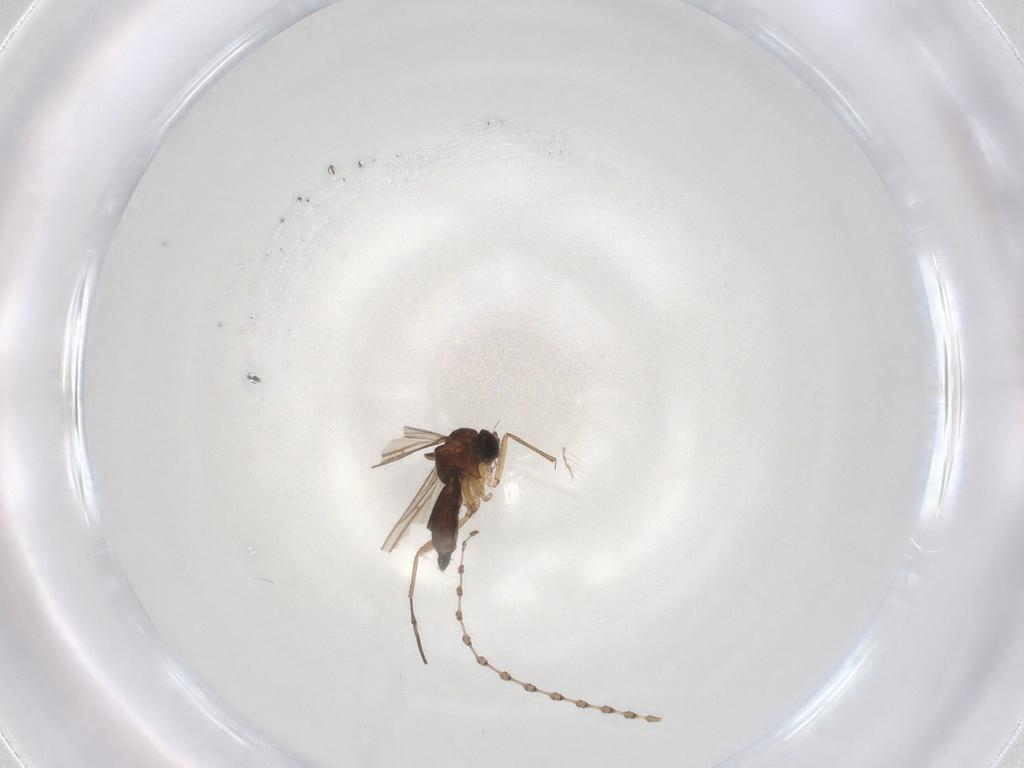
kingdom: Animalia
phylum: Arthropoda
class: Insecta
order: Diptera
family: Sciaridae
